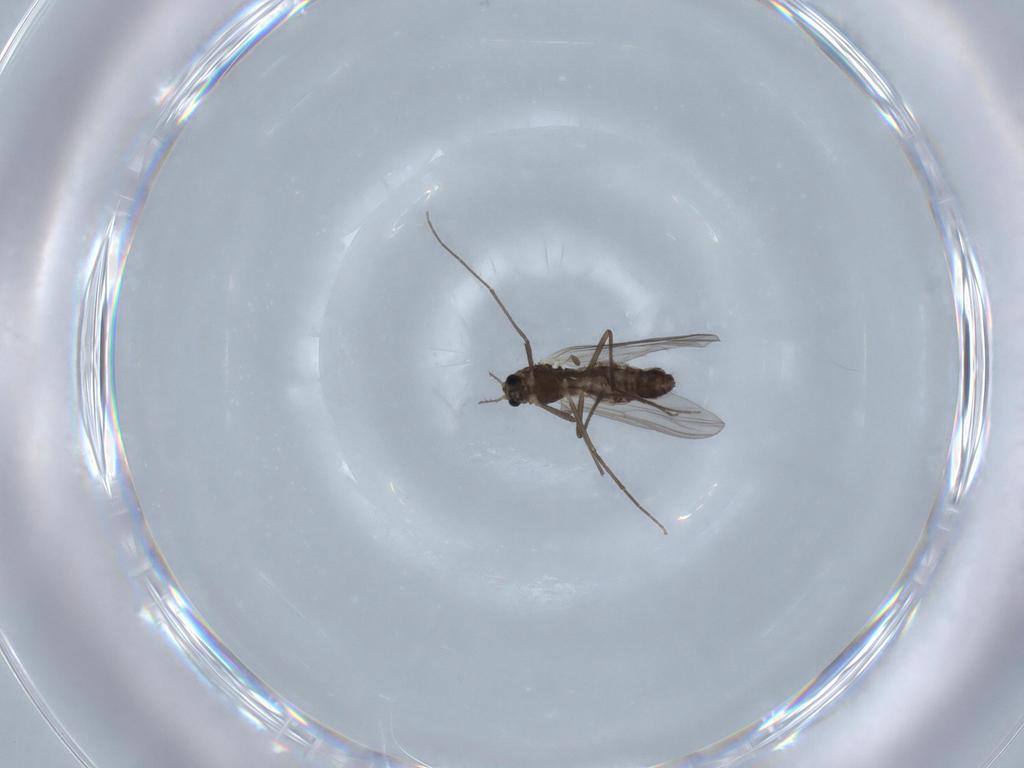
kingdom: Animalia
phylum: Arthropoda
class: Insecta
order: Diptera
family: Chironomidae
